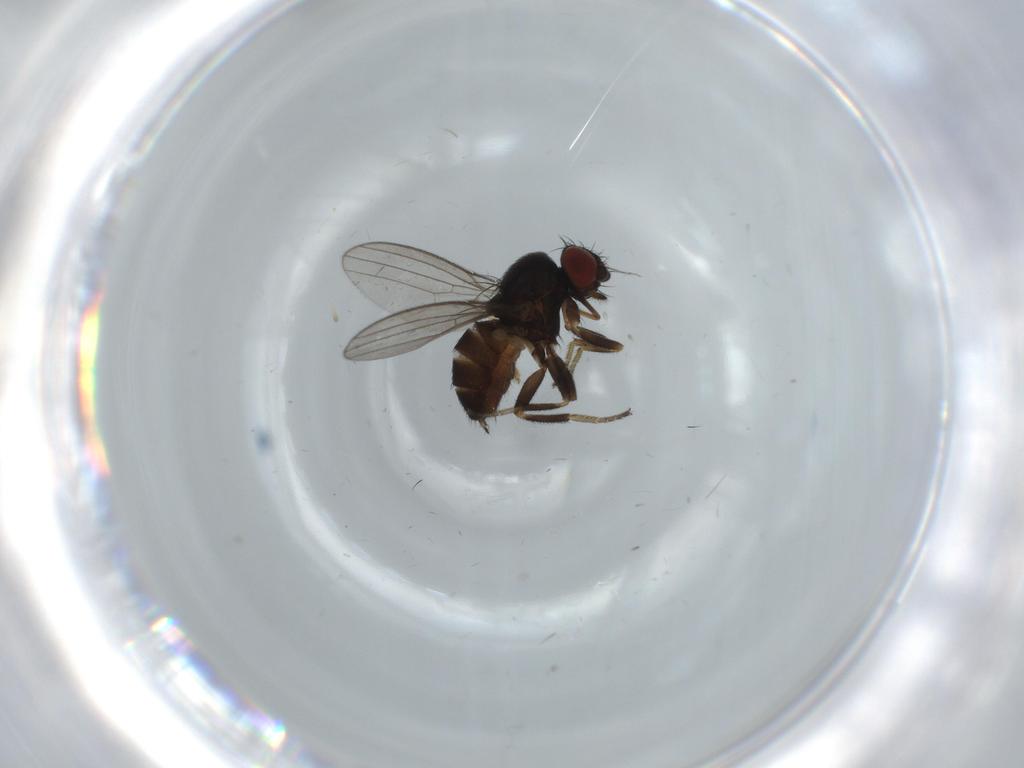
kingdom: Animalia
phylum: Arthropoda
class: Insecta
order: Diptera
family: Milichiidae
